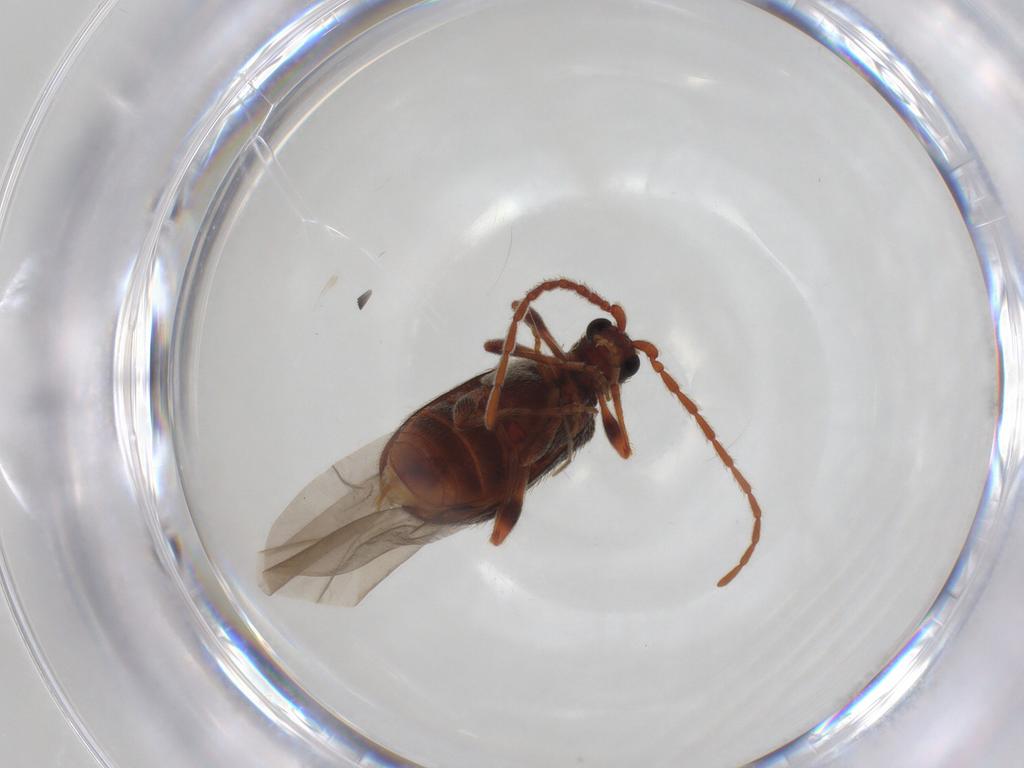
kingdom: Animalia
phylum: Arthropoda
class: Insecta
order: Coleoptera
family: Ptinidae
